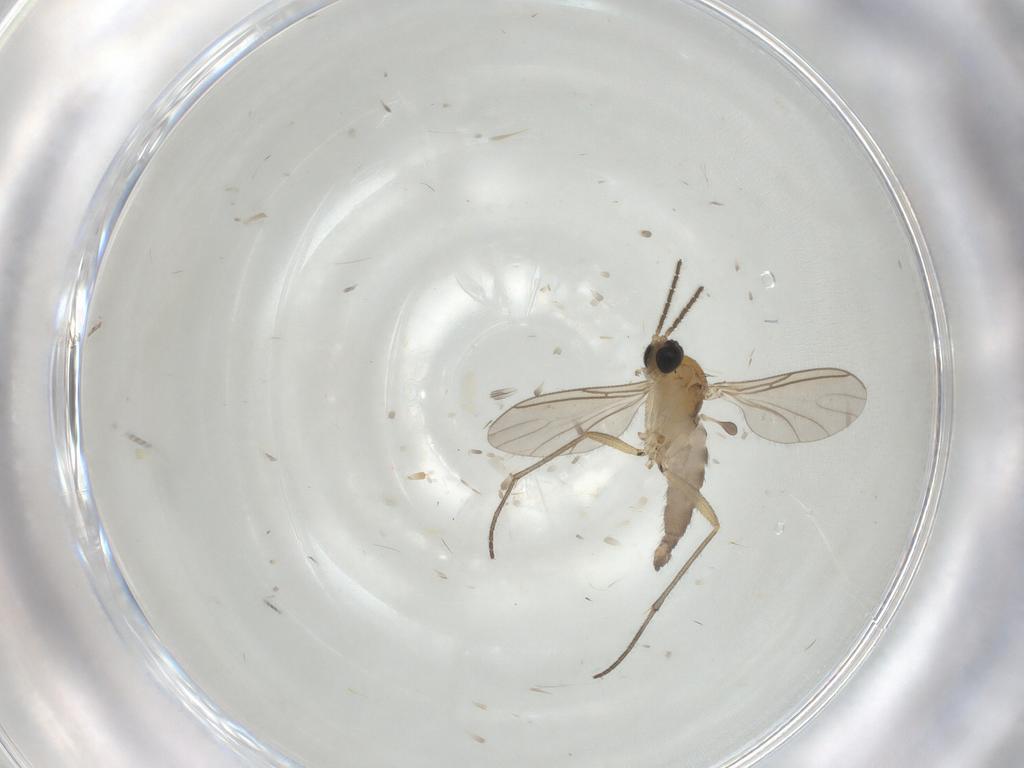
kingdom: Animalia
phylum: Arthropoda
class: Insecta
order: Diptera
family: Sciaridae
